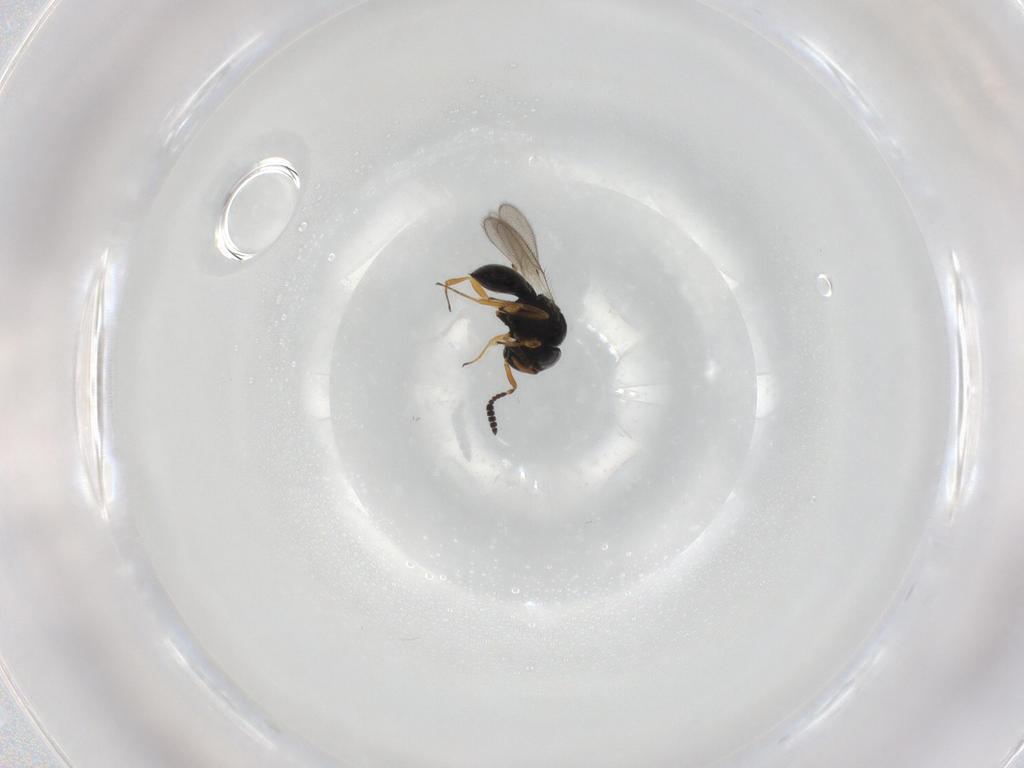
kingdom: Animalia
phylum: Arthropoda
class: Insecta
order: Hymenoptera
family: Scelionidae
